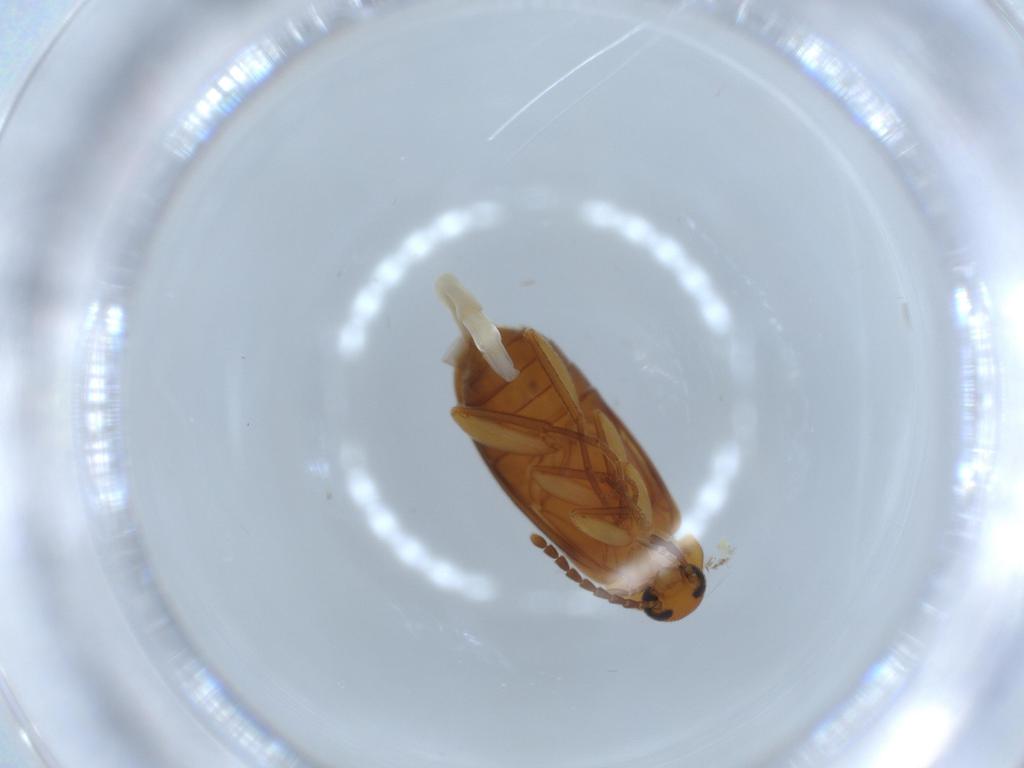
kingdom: Animalia
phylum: Arthropoda
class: Insecta
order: Coleoptera
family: Scraptiidae
